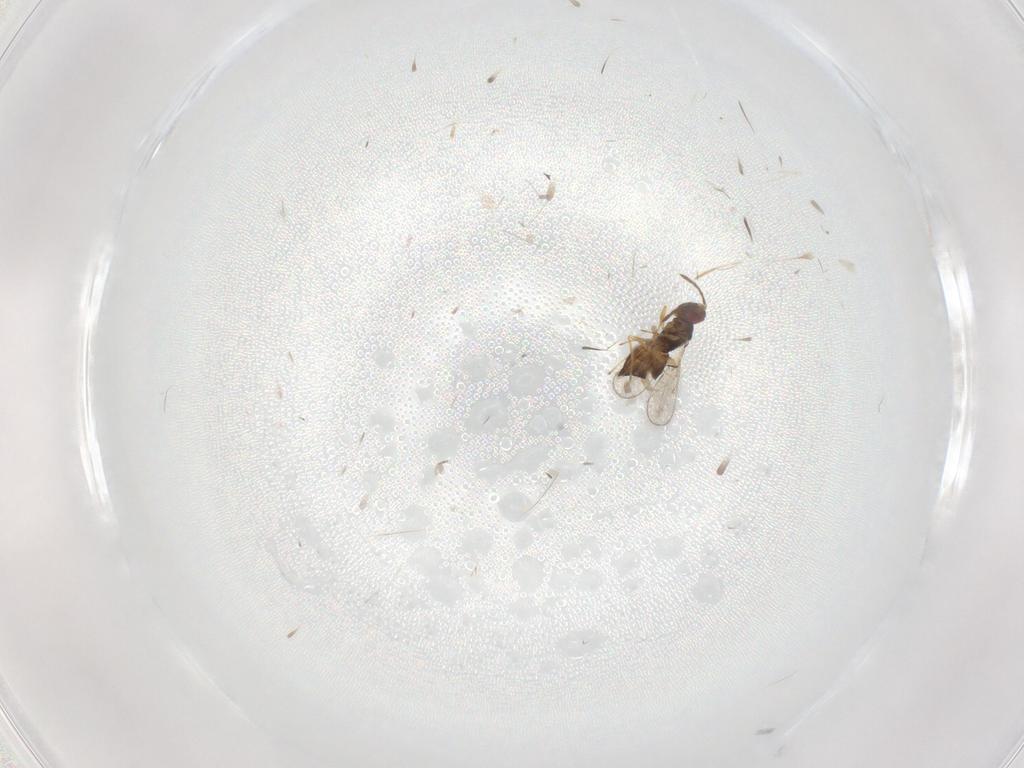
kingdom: Animalia
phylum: Arthropoda
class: Insecta
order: Hymenoptera
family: Eulophidae
